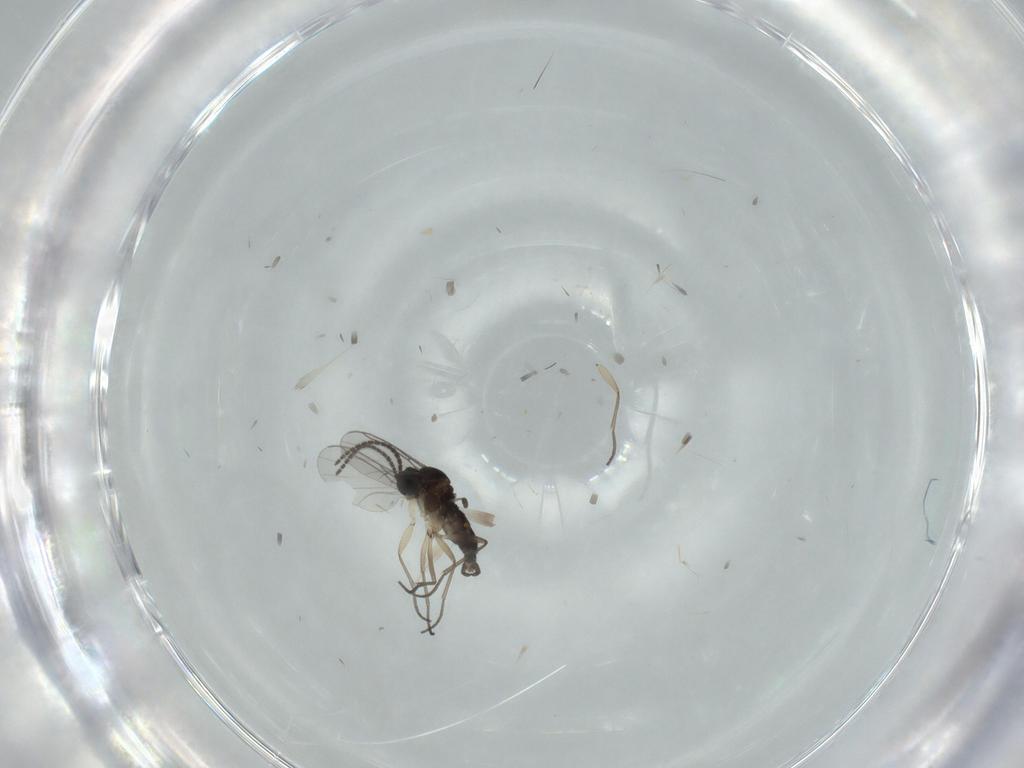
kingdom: Animalia
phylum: Arthropoda
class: Insecta
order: Diptera
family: Sciaridae
